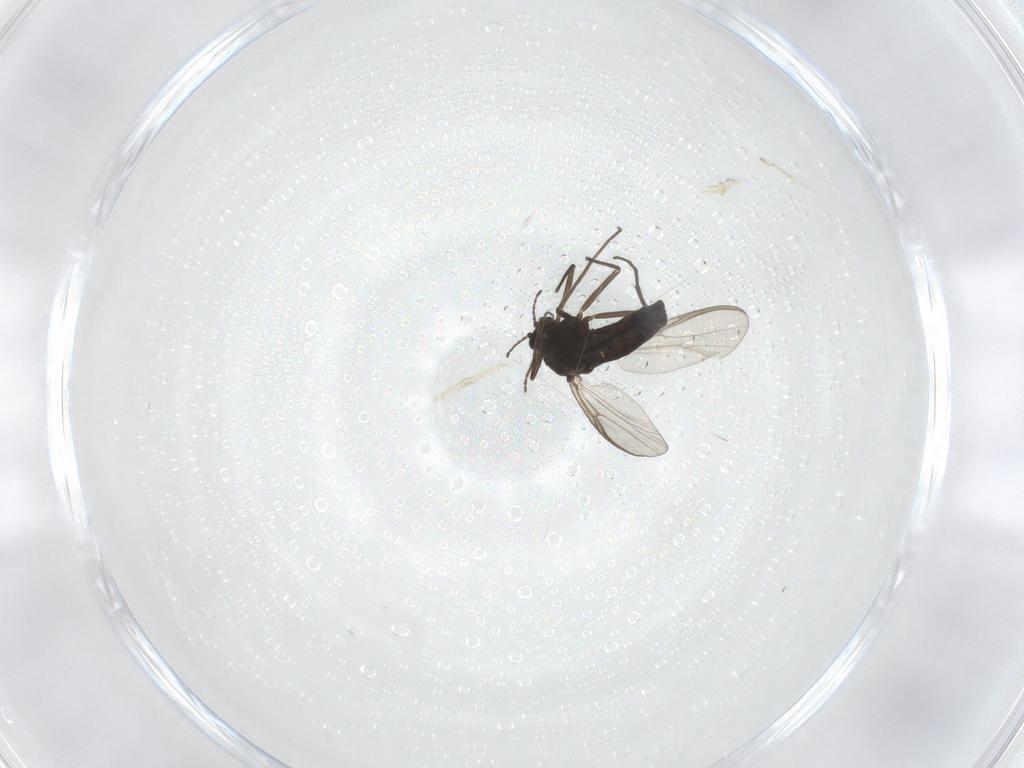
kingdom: Animalia
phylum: Arthropoda
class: Insecta
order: Diptera
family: Chironomidae
